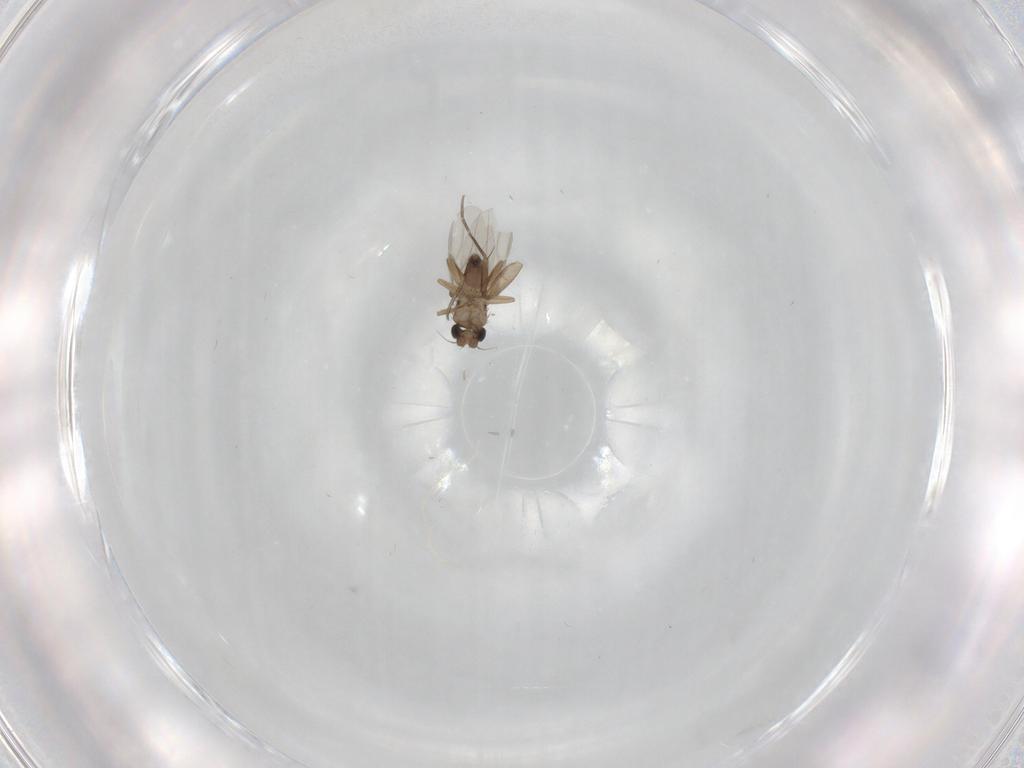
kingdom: Animalia
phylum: Arthropoda
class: Insecta
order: Diptera
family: Phoridae
